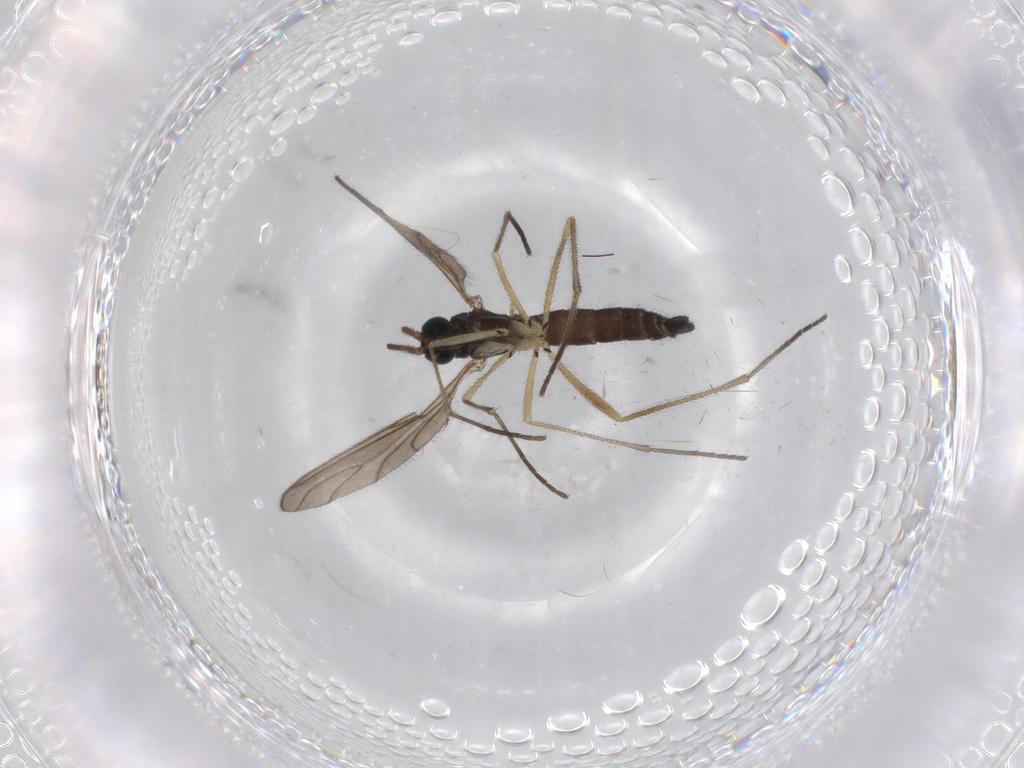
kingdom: Animalia
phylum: Arthropoda
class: Insecta
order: Diptera
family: Sciaridae
